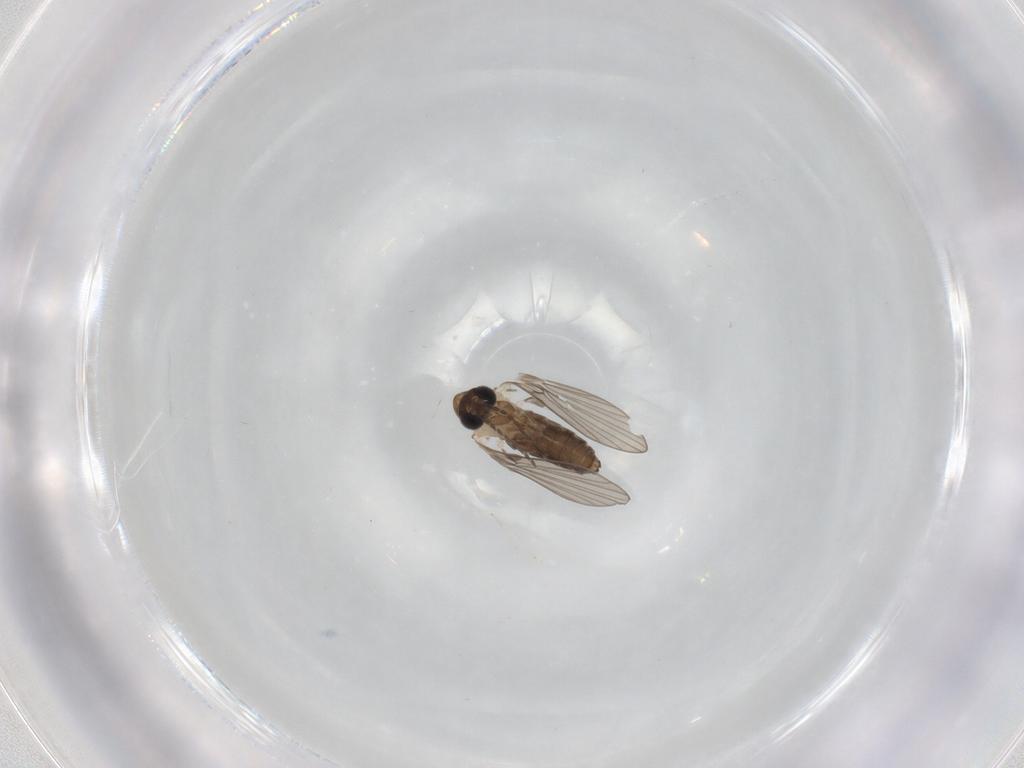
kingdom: Animalia
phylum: Arthropoda
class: Insecta
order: Diptera
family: Psychodidae
